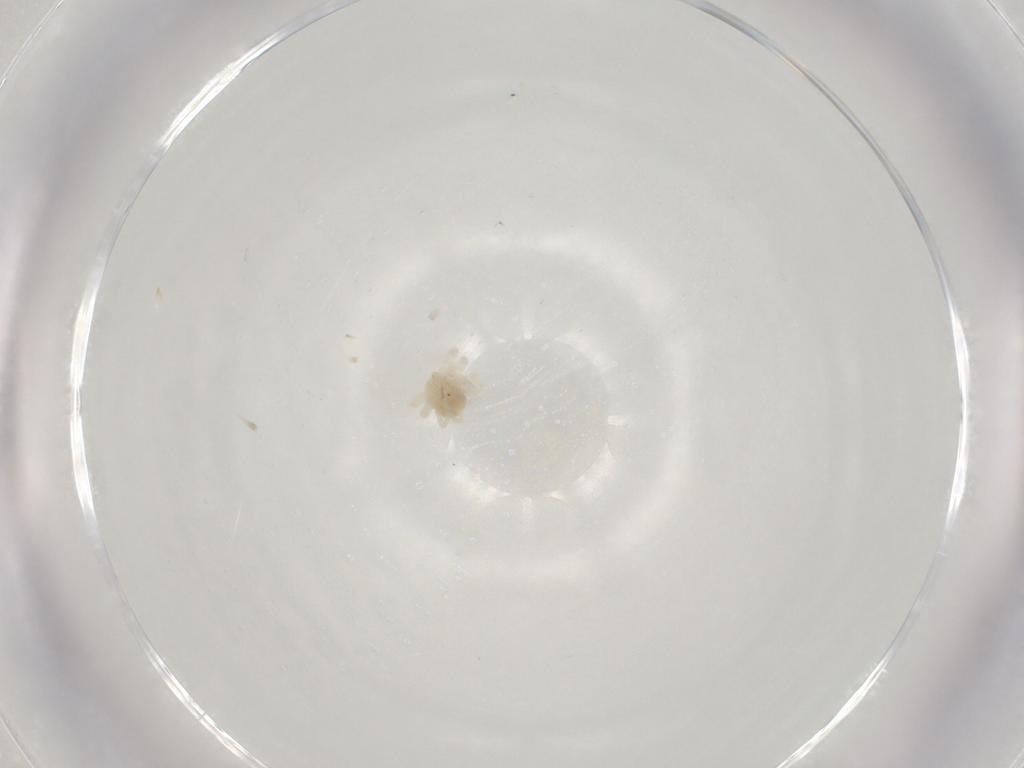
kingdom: Animalia
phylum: Arthropoda
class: Arachnida
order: Trombidiformes
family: Anystidae
